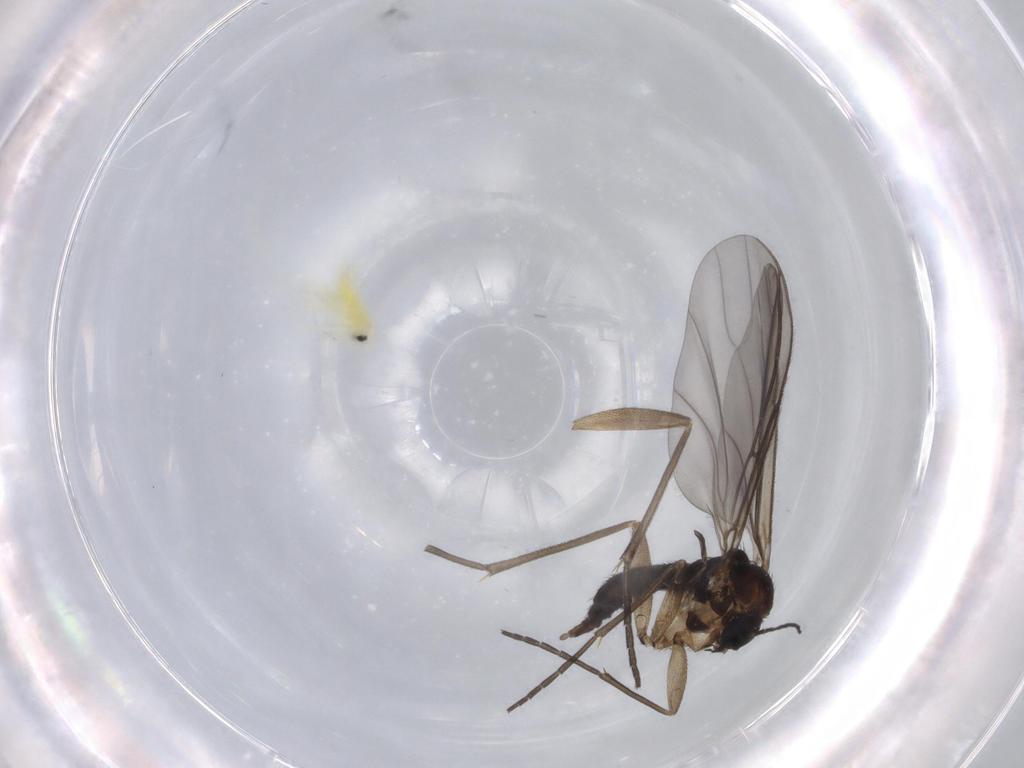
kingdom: Animalia
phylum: Arthropoda
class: Insecta
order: Hemiptera
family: Aleyrodidae
